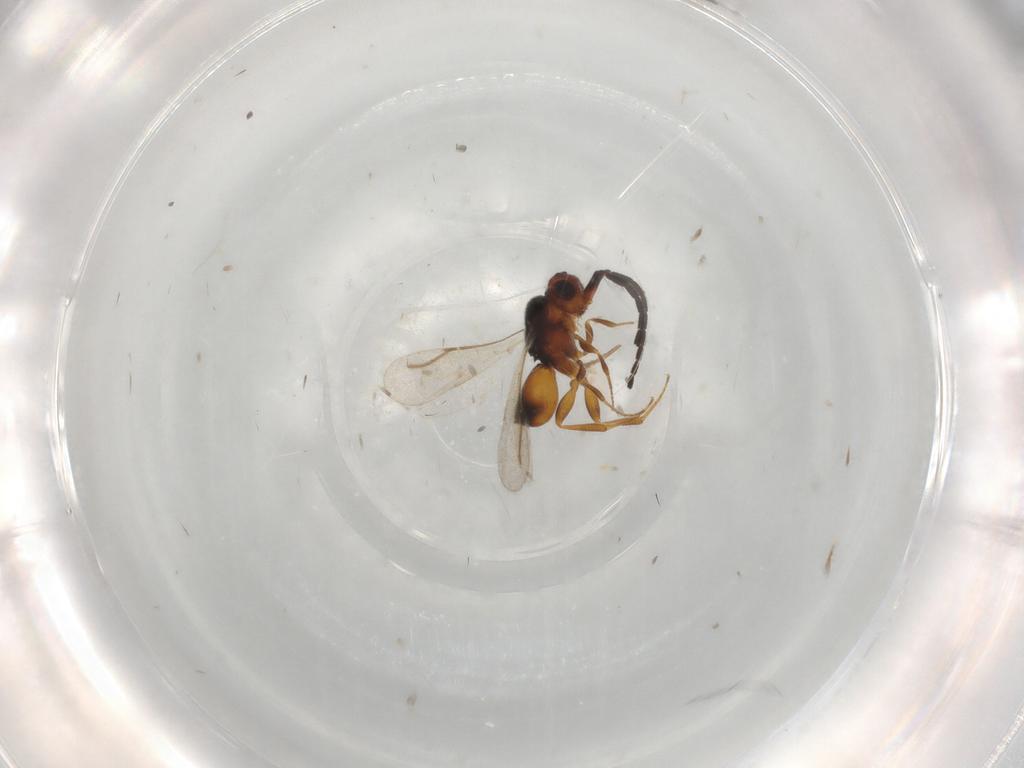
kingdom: Animalia
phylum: Arthropoda
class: Insecta
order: Hymenoptera
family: Pompilidae
